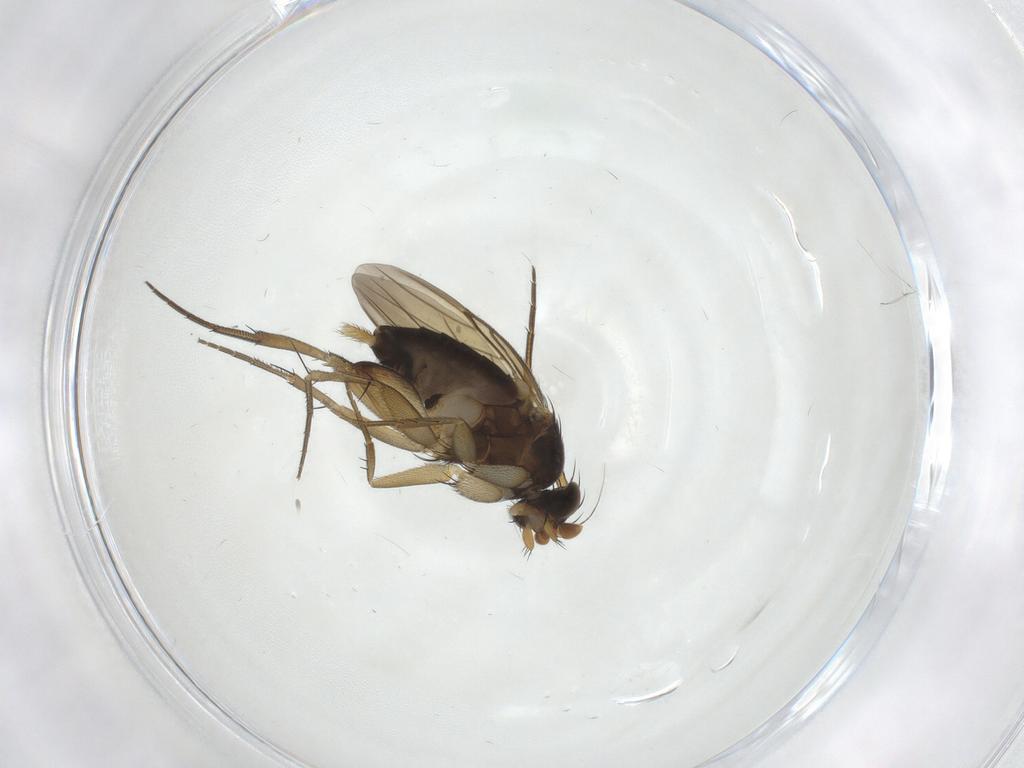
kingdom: Animalia
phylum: Arthropoda
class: Insecta
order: Diptera
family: Phoridae
